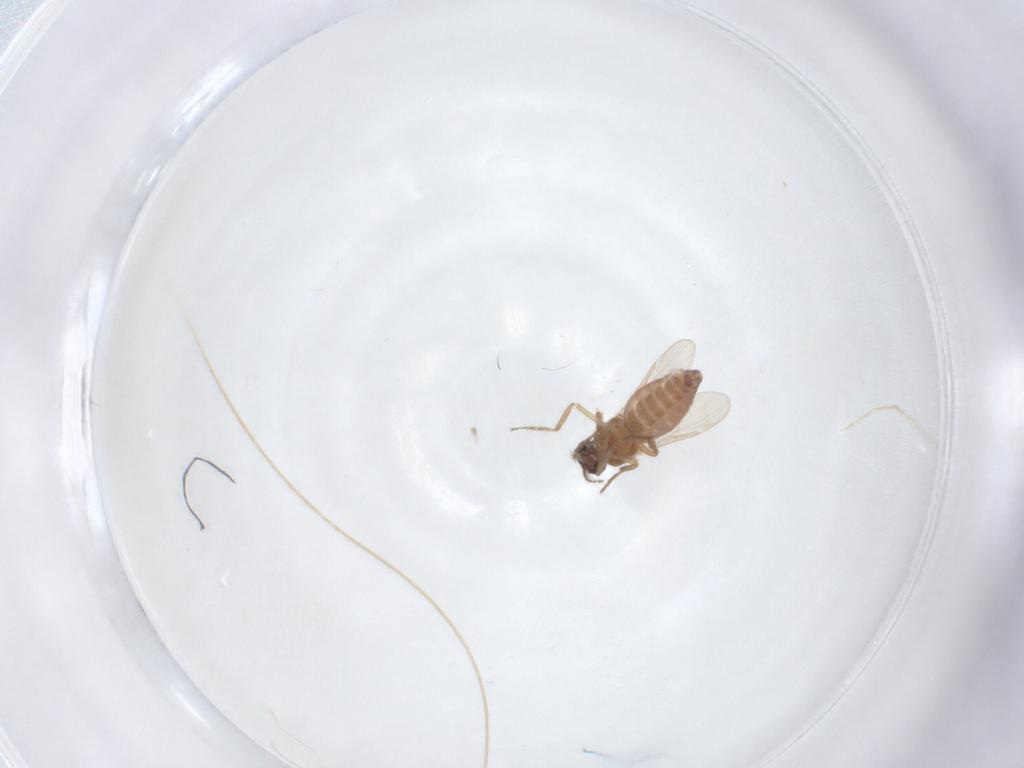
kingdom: Animalia
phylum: Arthropoda
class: Insecta
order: Diptera
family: Ceratopogonidae
